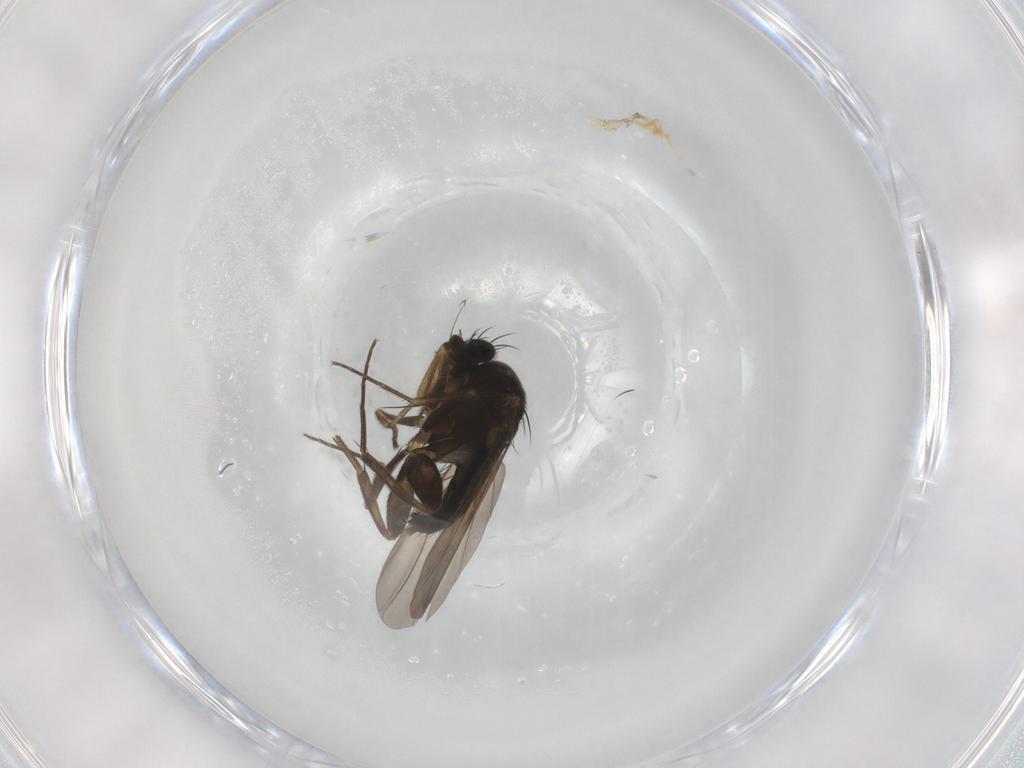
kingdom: Animalia
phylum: Arthropoda
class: Insecta
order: Diptera
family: Phoridae
